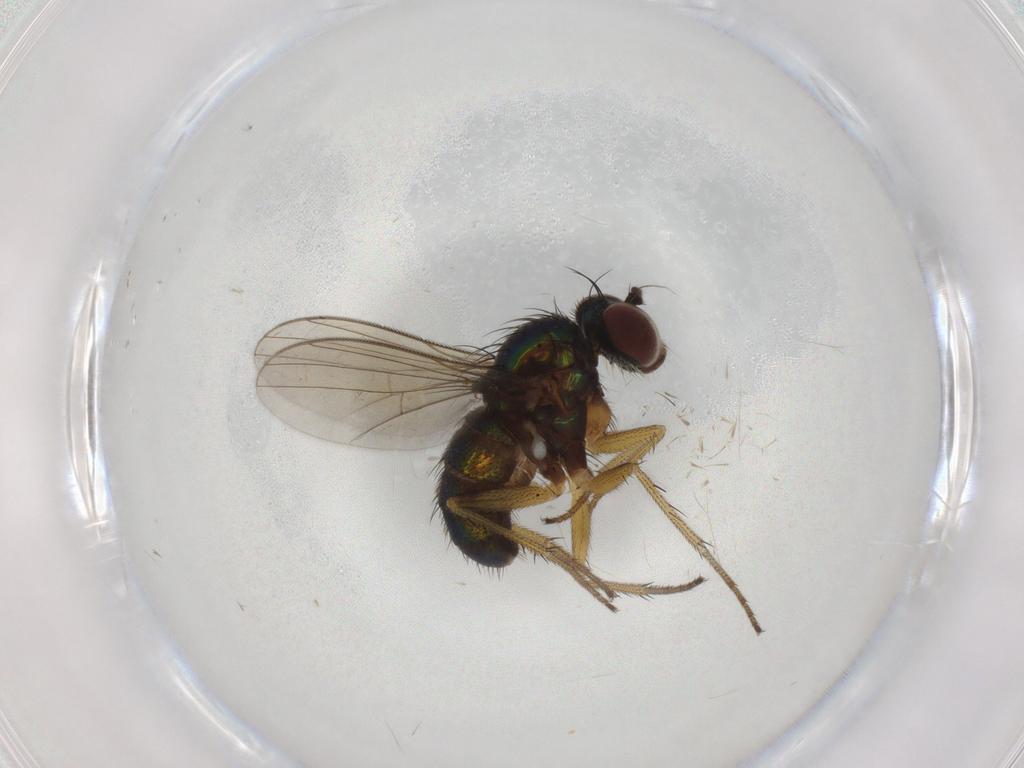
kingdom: Animalia
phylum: Arthropoda
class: Insecta
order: Diptera
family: Dolichopodidae
